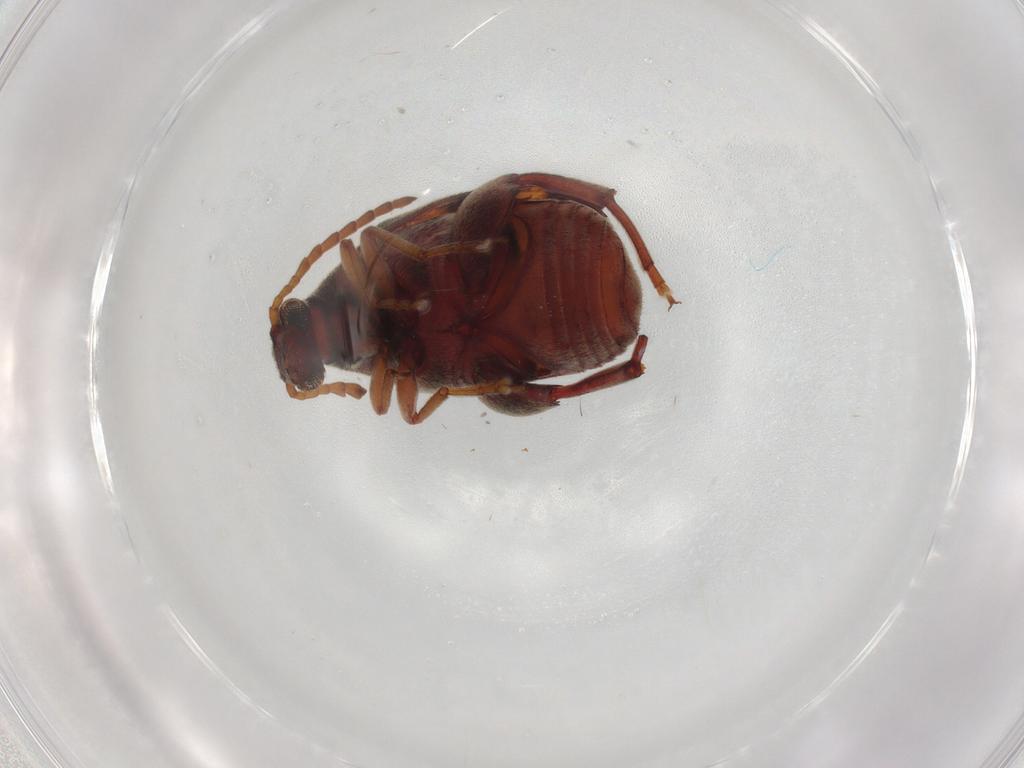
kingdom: Animalia
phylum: Arthropoda
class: Insecta
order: Coleoptera
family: Chrysomelidae
